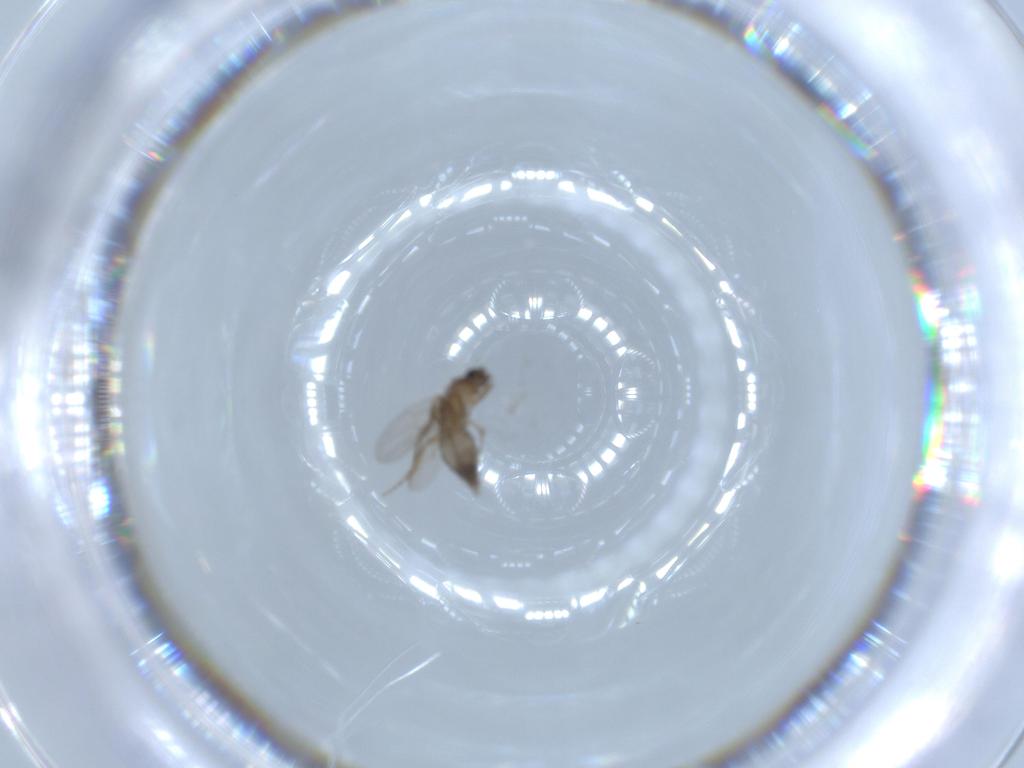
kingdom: Animalia
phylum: Arthropoda
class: Insecta
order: Diptera
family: Phoridae
